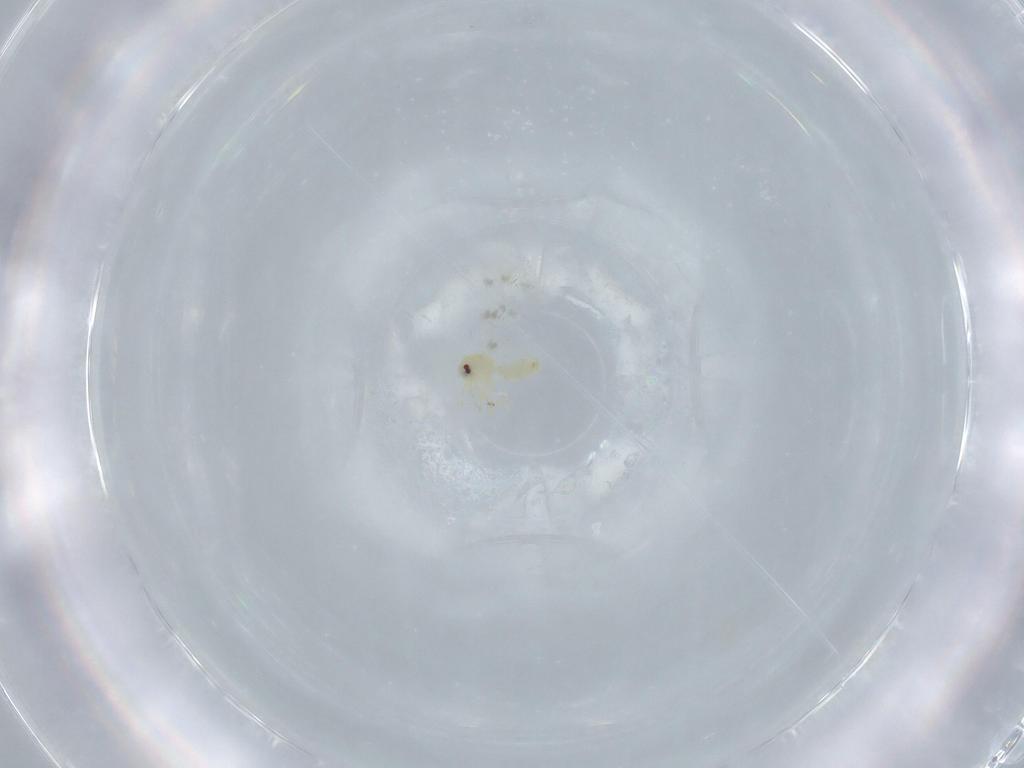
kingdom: Animalia
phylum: Arthropoda
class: Insecta
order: Hemiptera
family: Aleyrodidae
